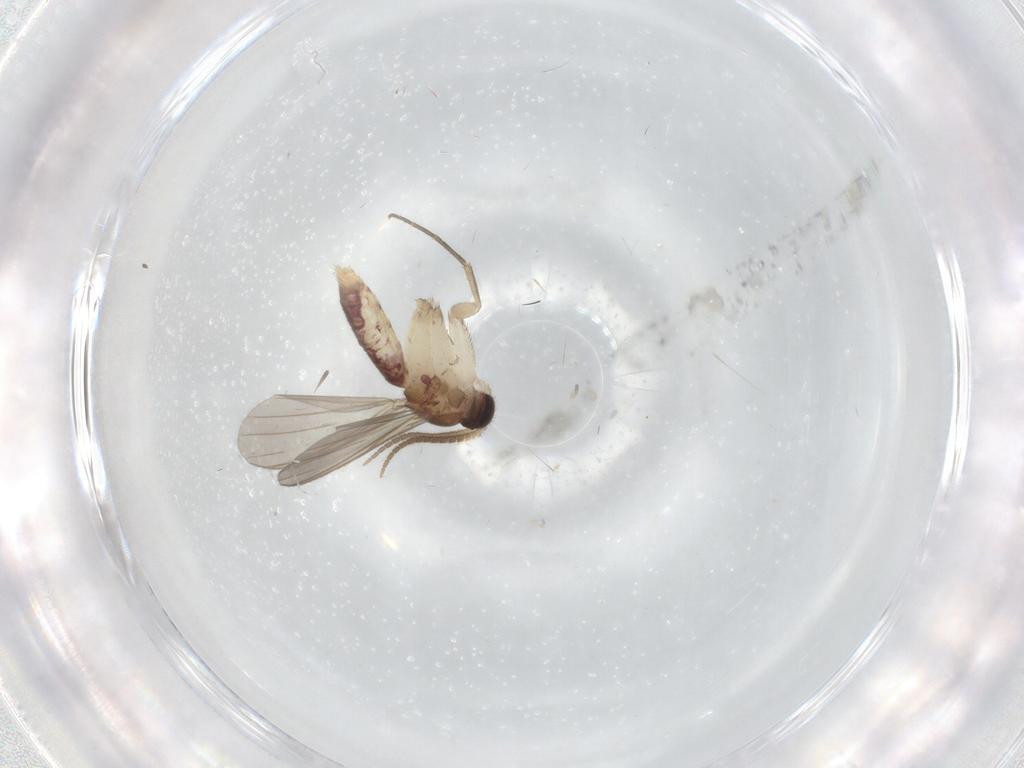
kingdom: Animalia
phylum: Arthropoda
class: Insecta
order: Diptera
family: Mycetophilidae
